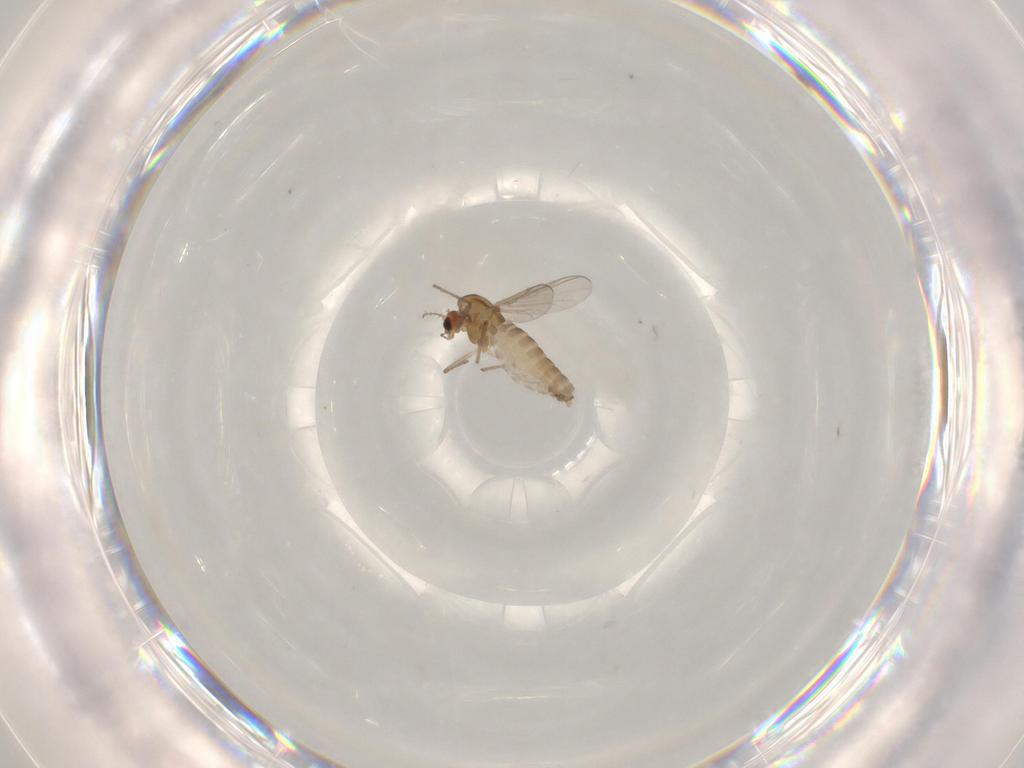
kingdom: Animalia
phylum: Arthropoda
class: Insecta
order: Diptera
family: Chironomidae
